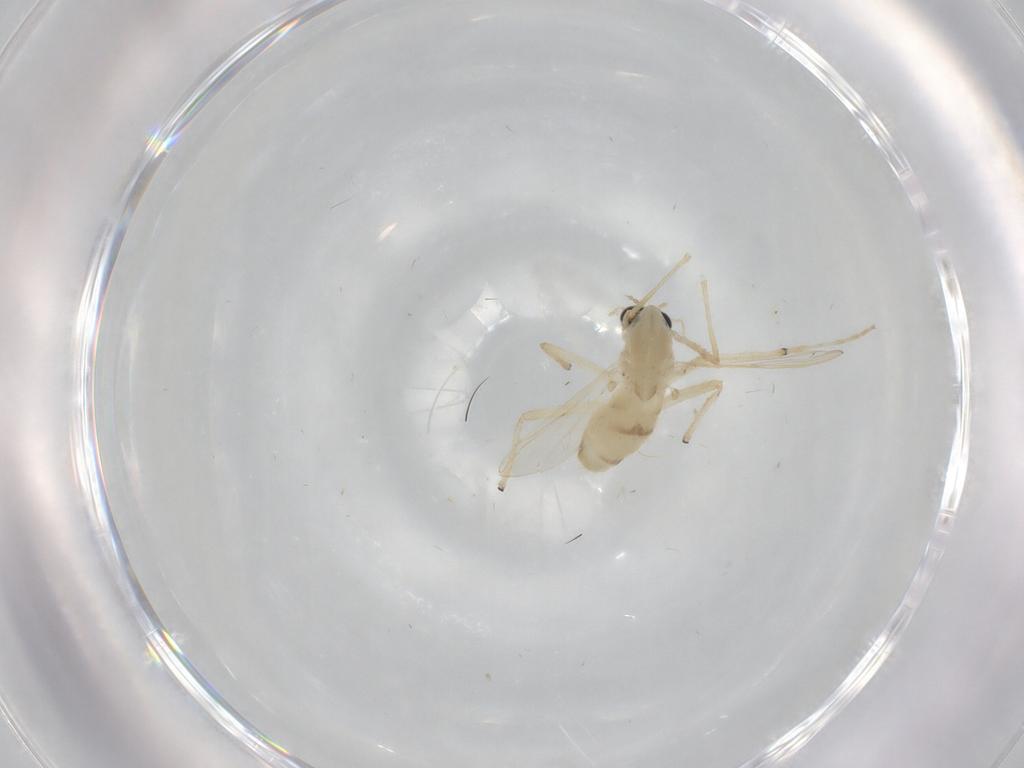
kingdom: Animalia
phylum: Arthropoda
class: Insecta
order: Diptera
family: Chironomidae
